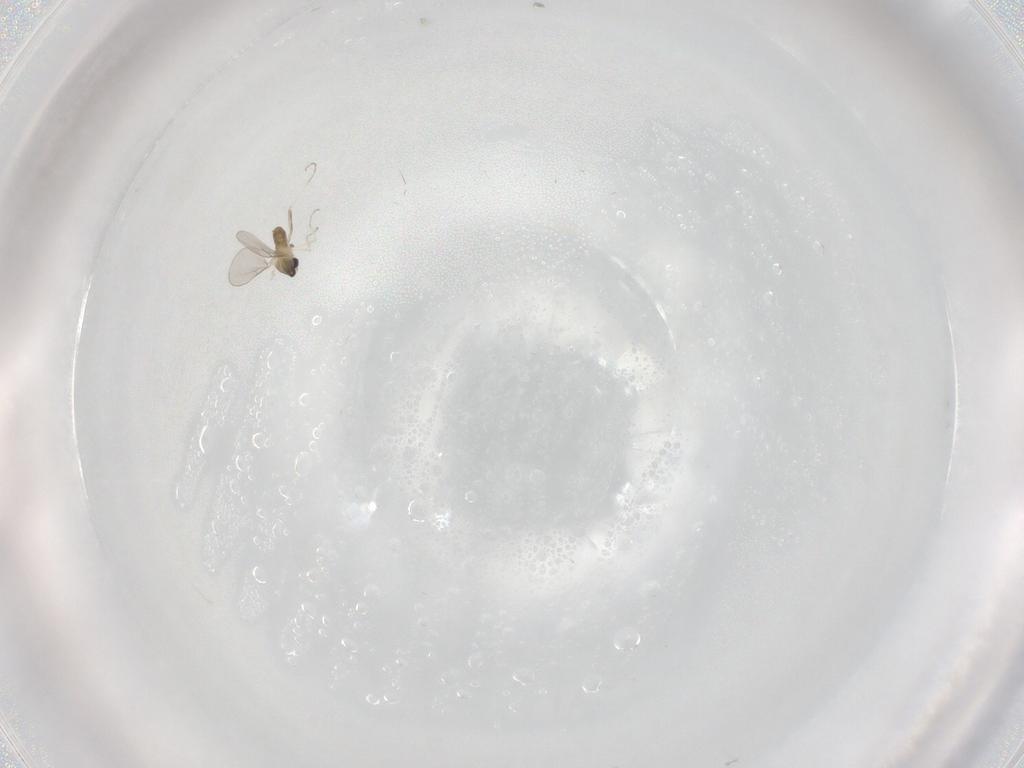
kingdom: Animalia
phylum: Arthropoda
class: Insecta
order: Diptera
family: Cecidomyiidae
